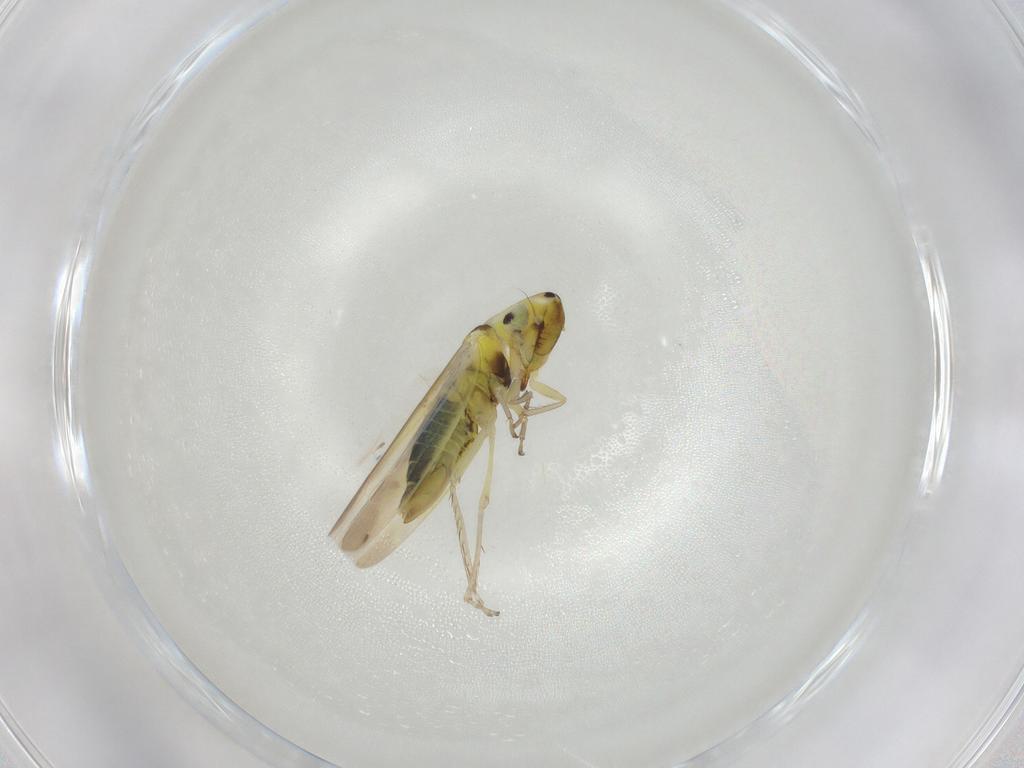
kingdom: Animalia
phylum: Arthropoda
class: Insecta
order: Diptera
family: Pipunculidae
